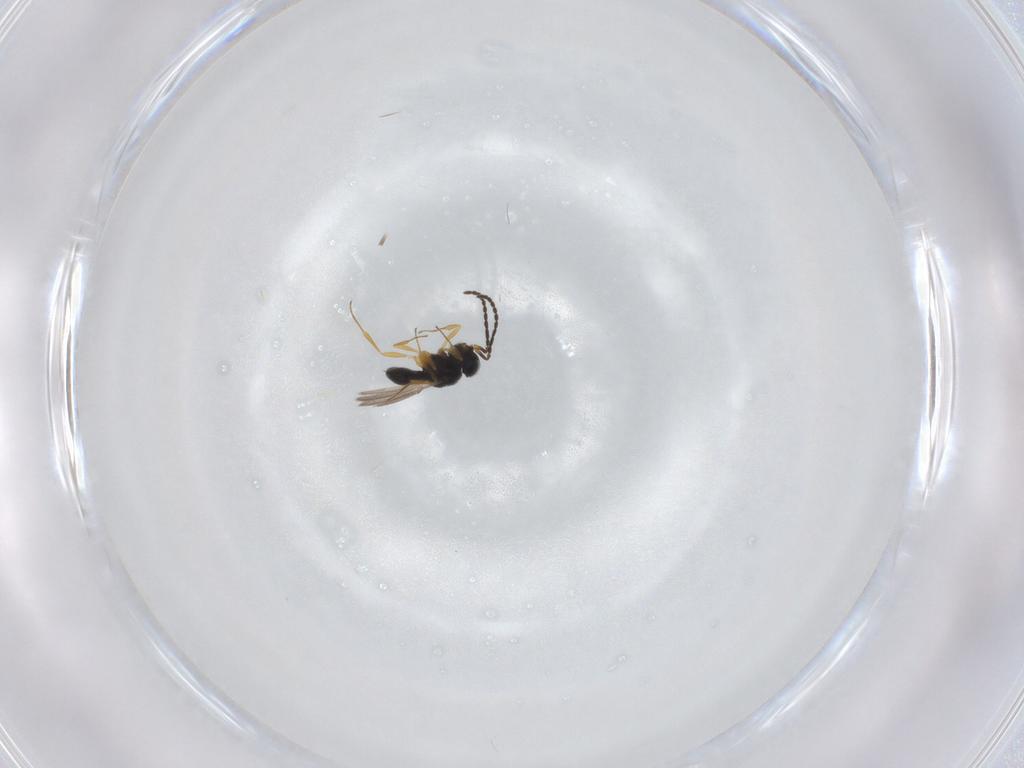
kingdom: Animalia
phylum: Arthropoda
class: Insecta
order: Hymenoptera
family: Scelionidae
